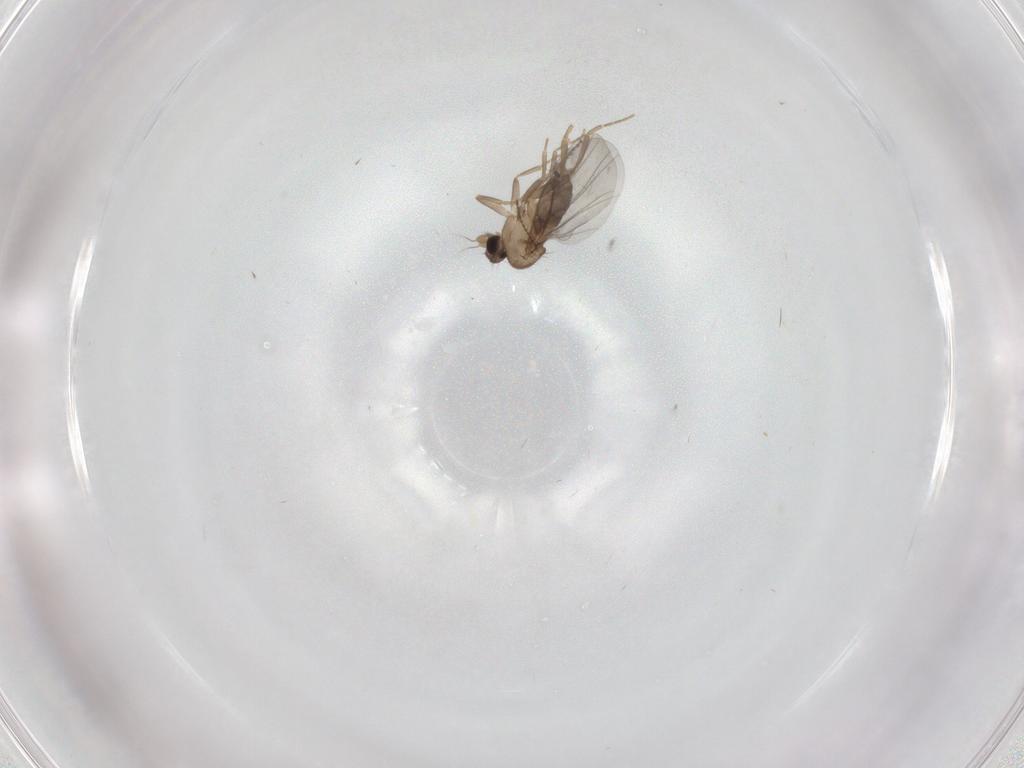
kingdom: Animalia
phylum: Arthropoda
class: Insecta
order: Diptera
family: Cecidomyiidae
